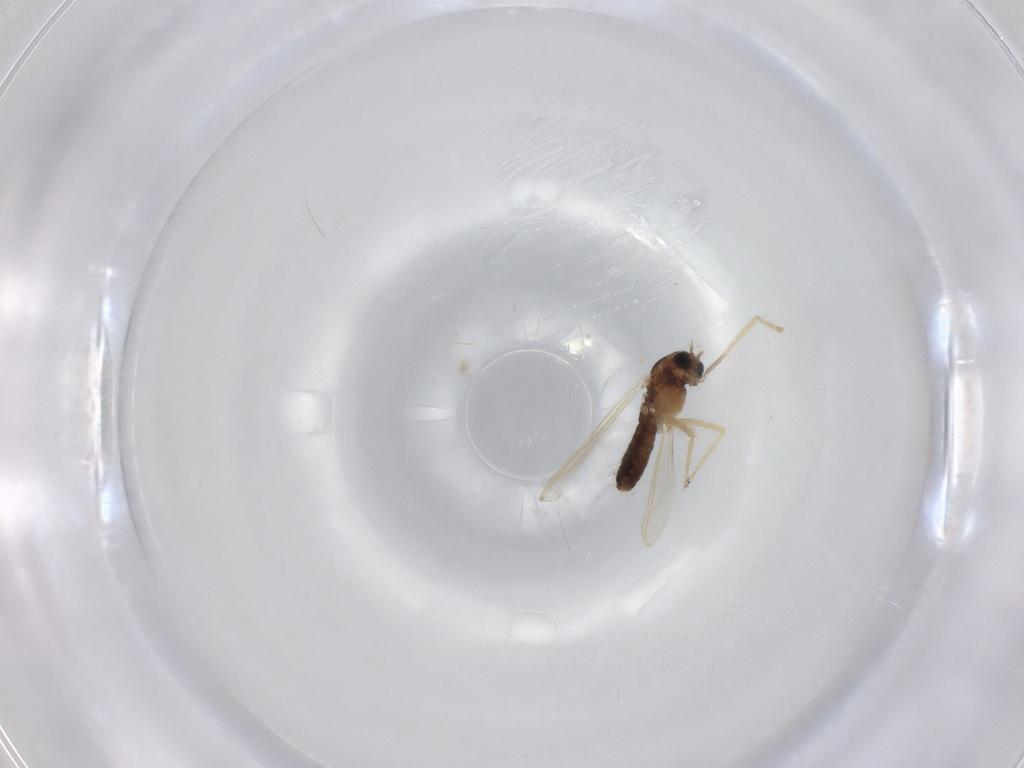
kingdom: Animalia
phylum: Arthropoda
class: Insecta
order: Diptera
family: Chironomidae
